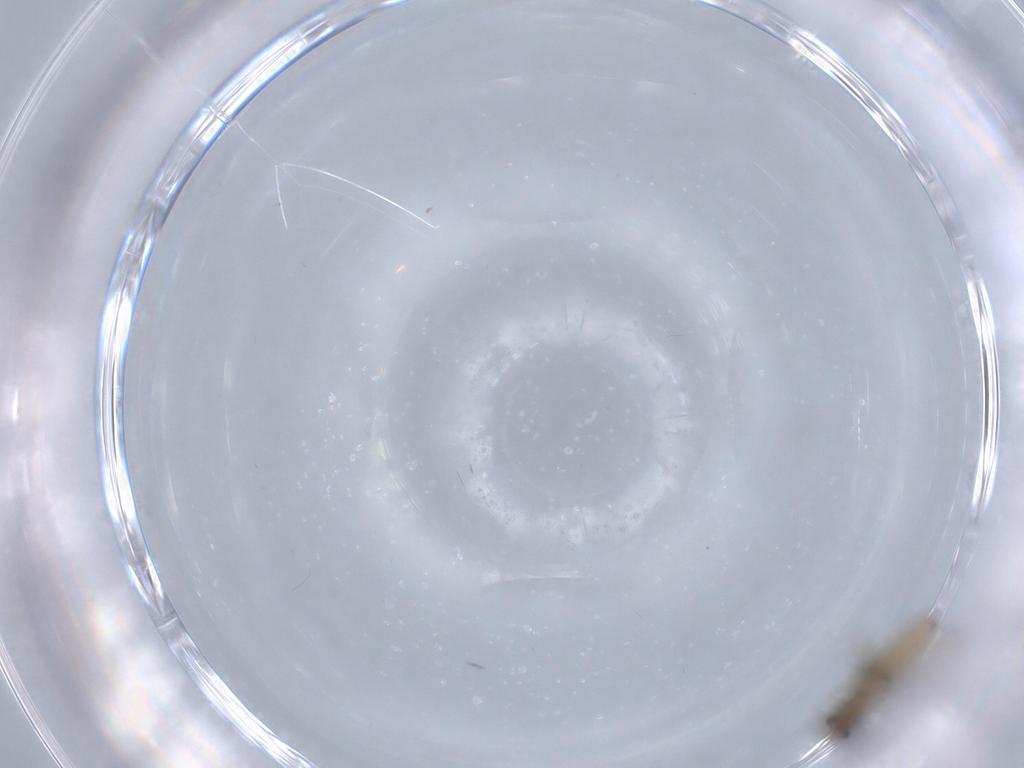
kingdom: Animalia
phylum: Arthropoda
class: Insecta
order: Diptera
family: Chironomidae
